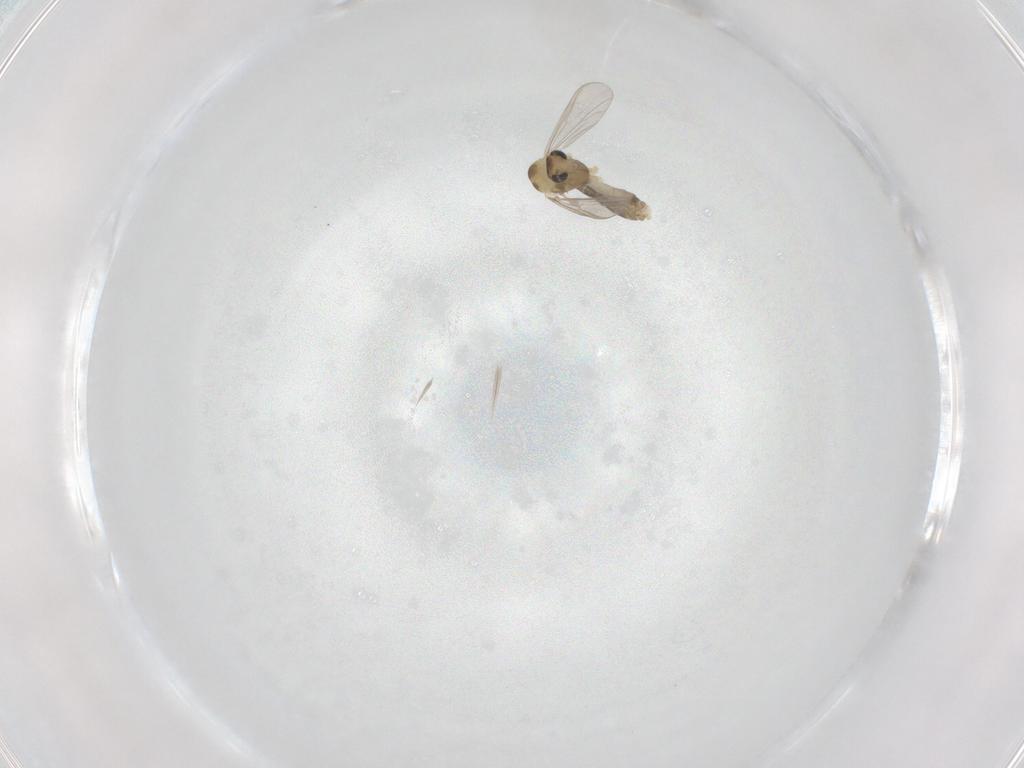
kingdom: Animalia
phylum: Arthropoda
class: Insecta
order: Diptera
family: Chironomidae
